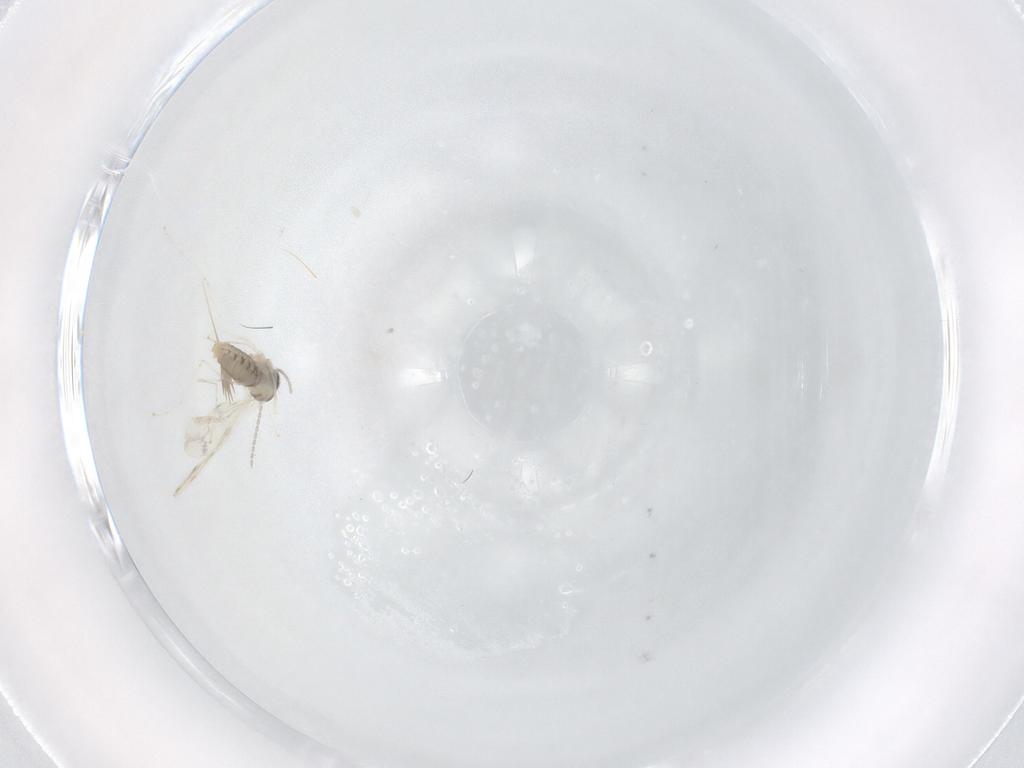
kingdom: Animalia
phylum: Arthropoda
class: Insecta
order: Diptera
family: Cecidomyiidae
